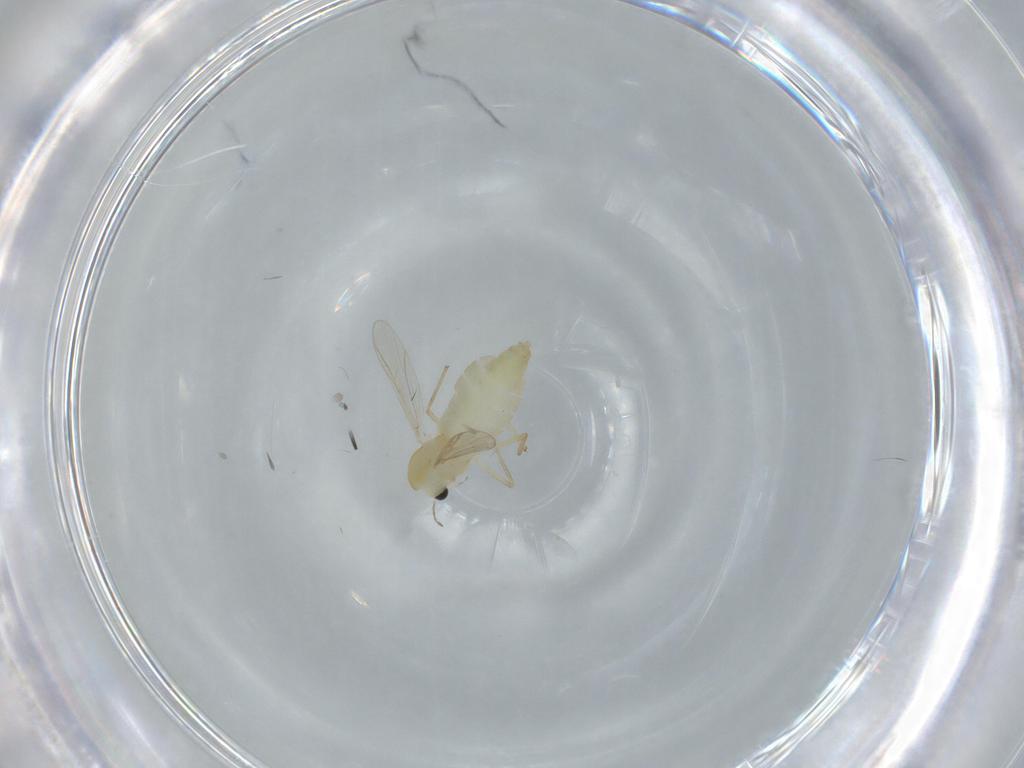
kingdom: Animalia
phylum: Arthropoda
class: Insecta
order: Diptera
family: Chironomidae
